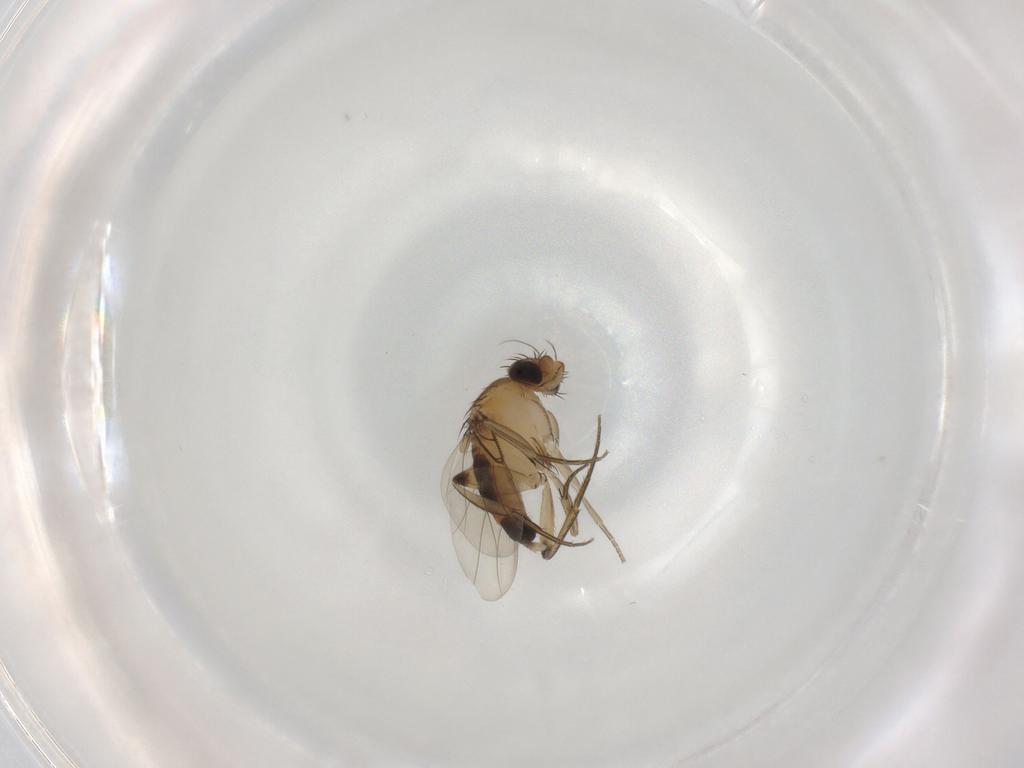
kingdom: Animalia
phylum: Arthropoda
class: Insecta
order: Diptera
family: Phoridae
